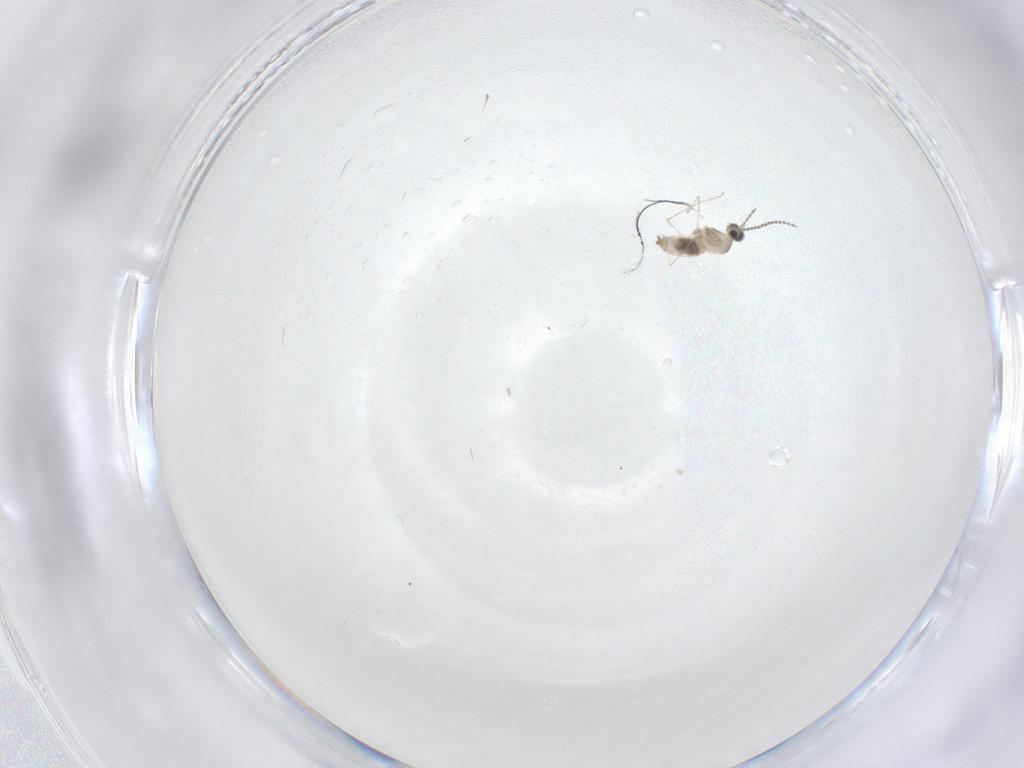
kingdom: Animalia
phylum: Arthropoda
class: Insecta
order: Diptera
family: Cecidomyiidae
